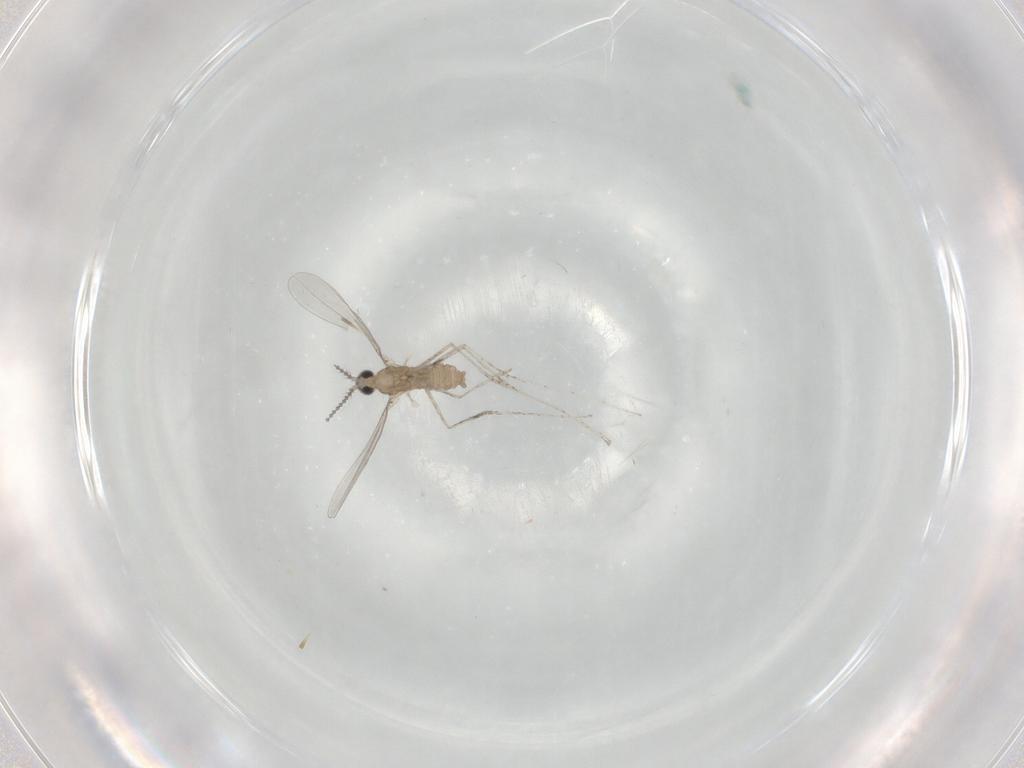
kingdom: Animalia
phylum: Arthropoda
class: Insecta
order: Diptera
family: Cecidomyiidae
